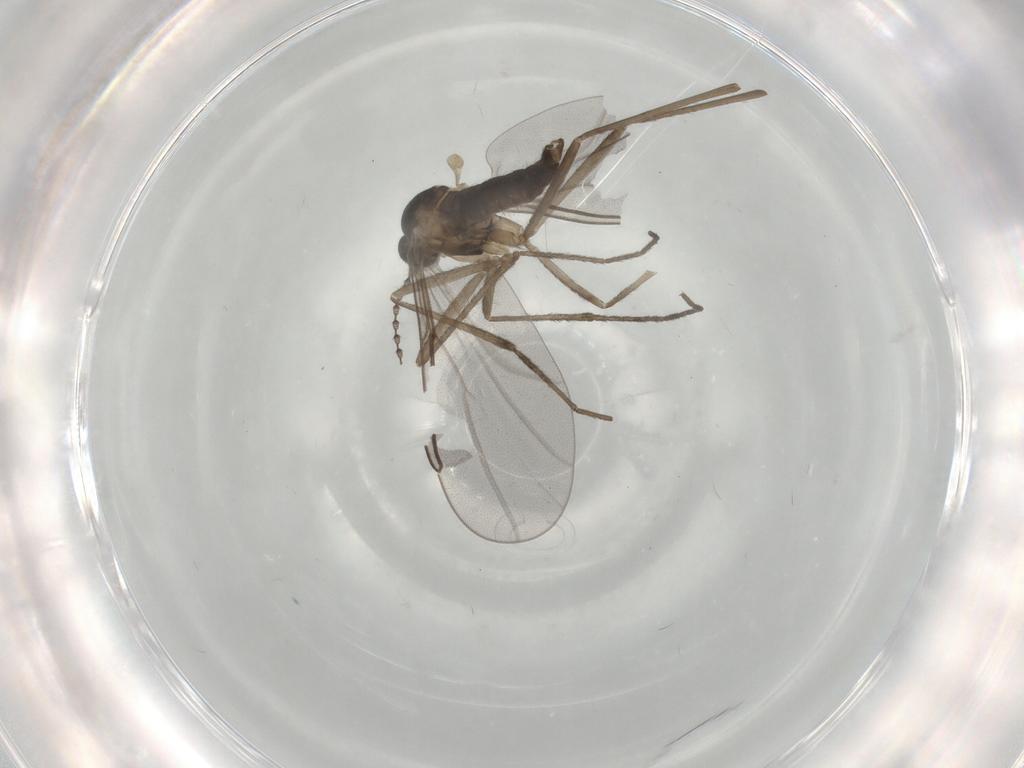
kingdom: Animalia
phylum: Arthropoda
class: Insecta
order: Diptera
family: Cecidomyiidae
